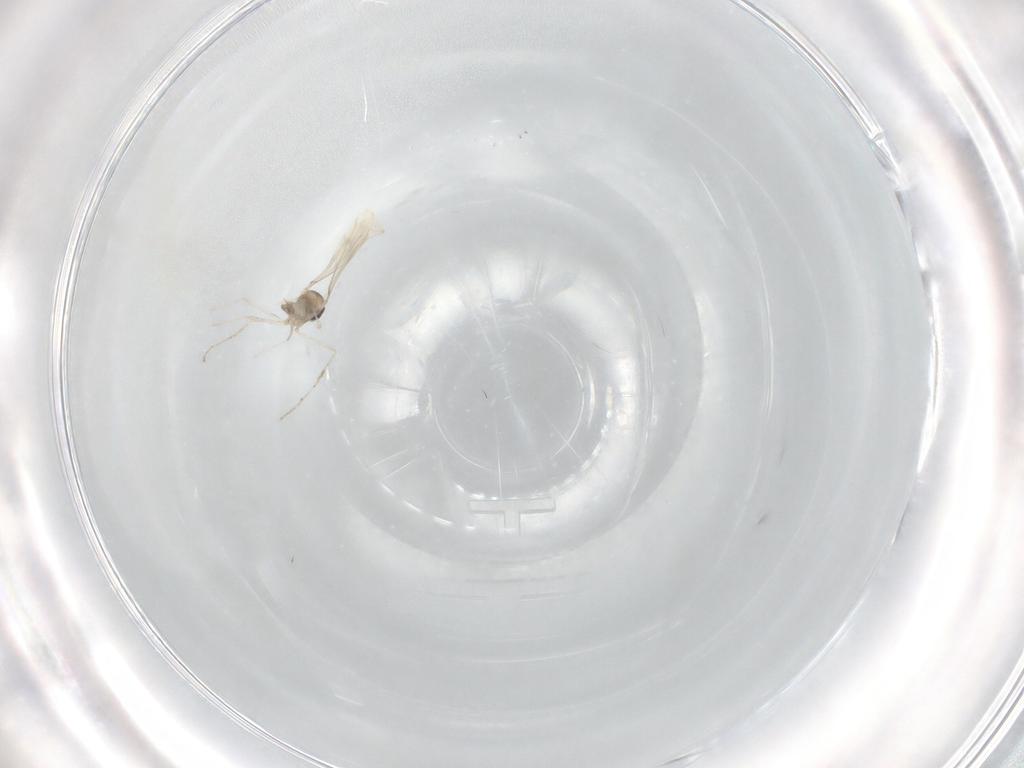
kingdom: Animalia
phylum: Arthropoda
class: Insecta
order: Diptera
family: Cecidomyiidae
